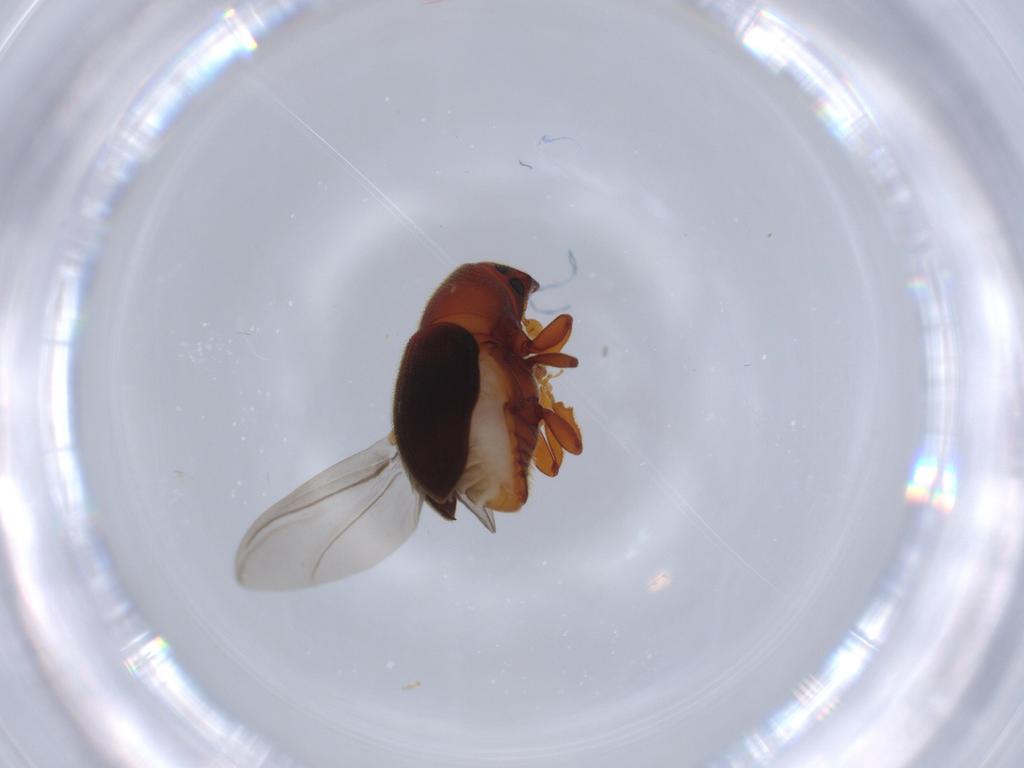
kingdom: Animalia
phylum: Arthropoda
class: Insecta
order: Coleoptera
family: Curculionidae
